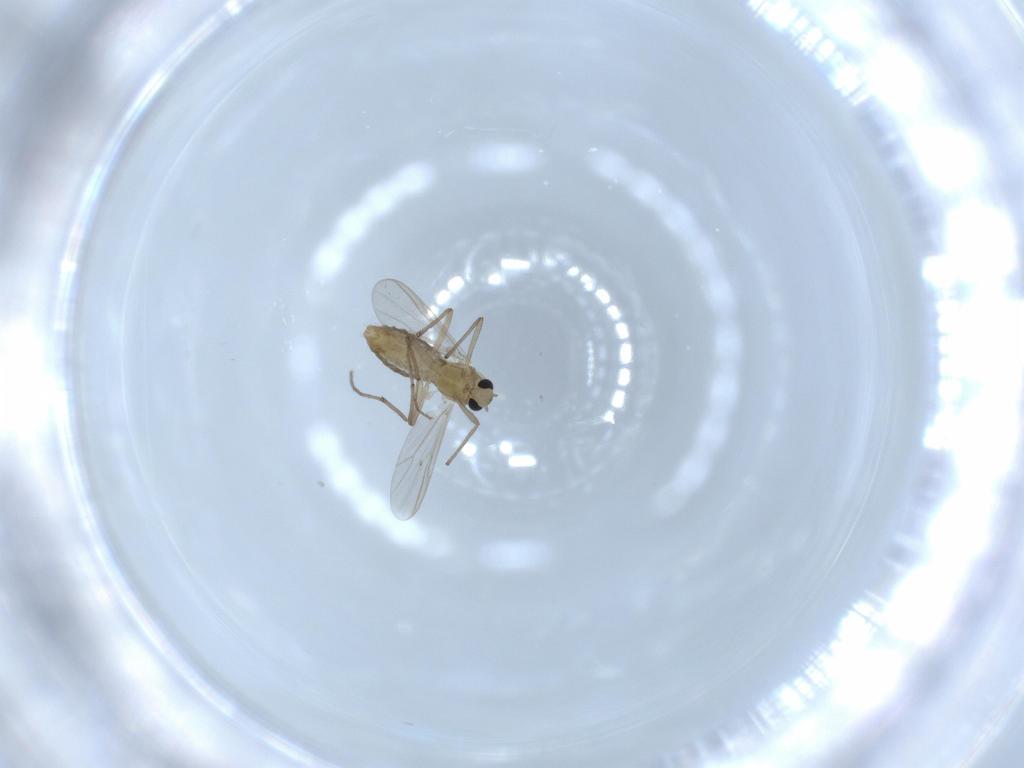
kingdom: Animalia
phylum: Arthropoda
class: Insecta
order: Diptera
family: Chironomidae
